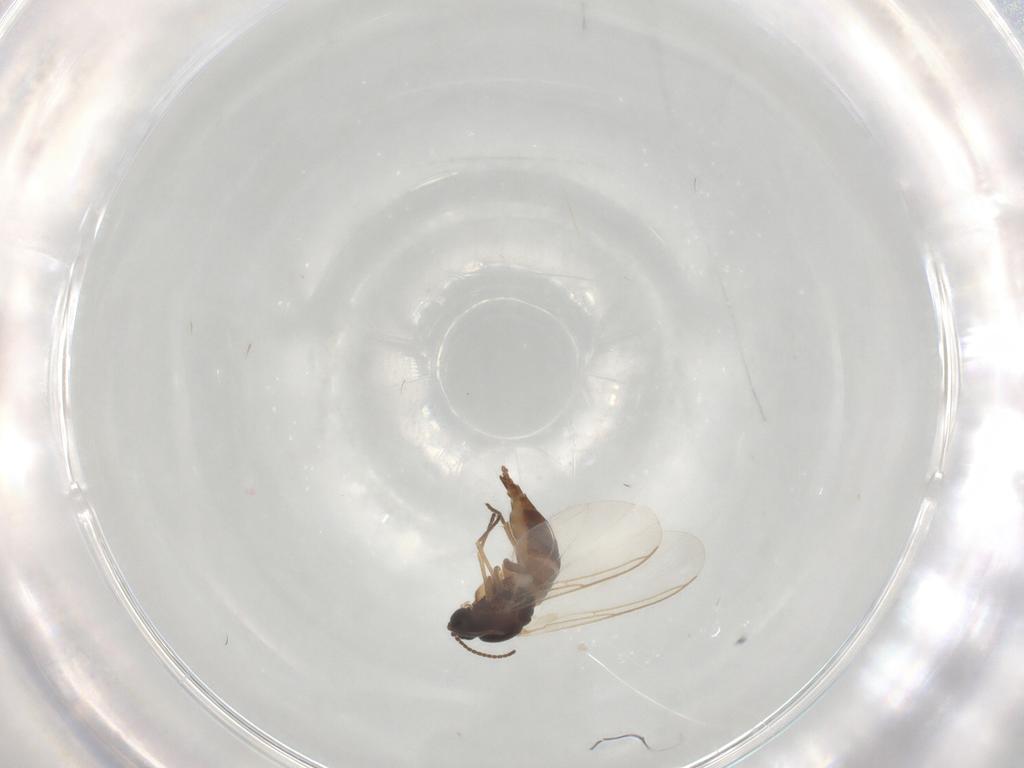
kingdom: Animalia
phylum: Arthropoda
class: Insecta
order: Diptera
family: Sciaridae
